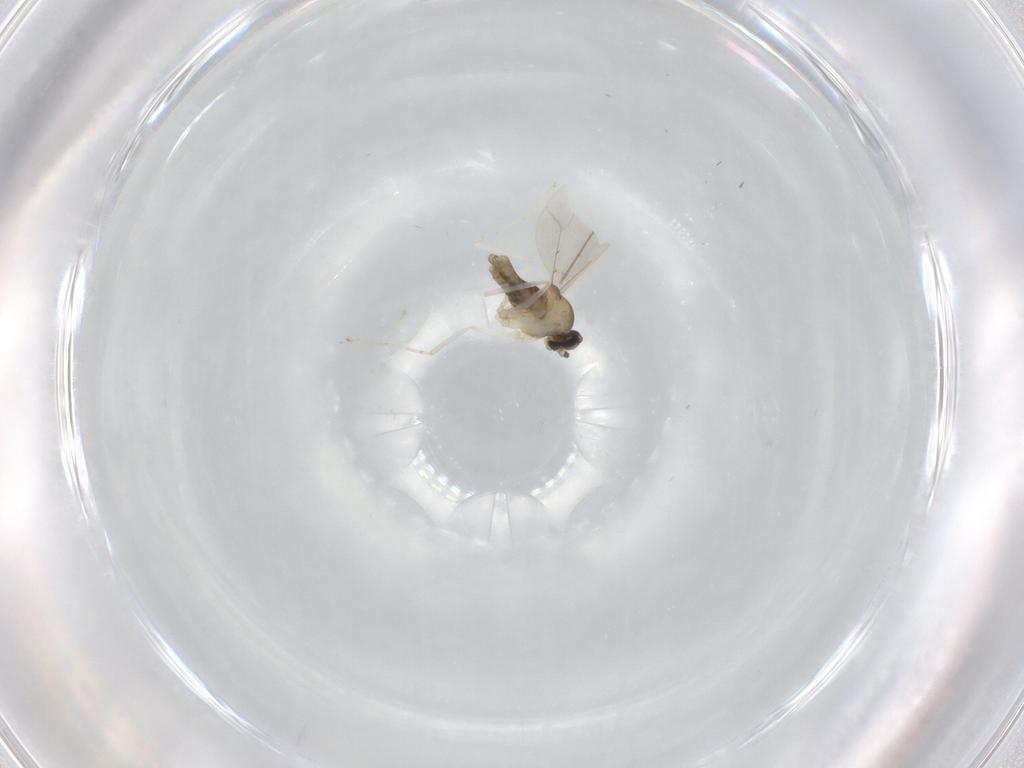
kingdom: Animalia
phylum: Arthropoda
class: Insecta
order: Diptera
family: Cecidomyiidae
